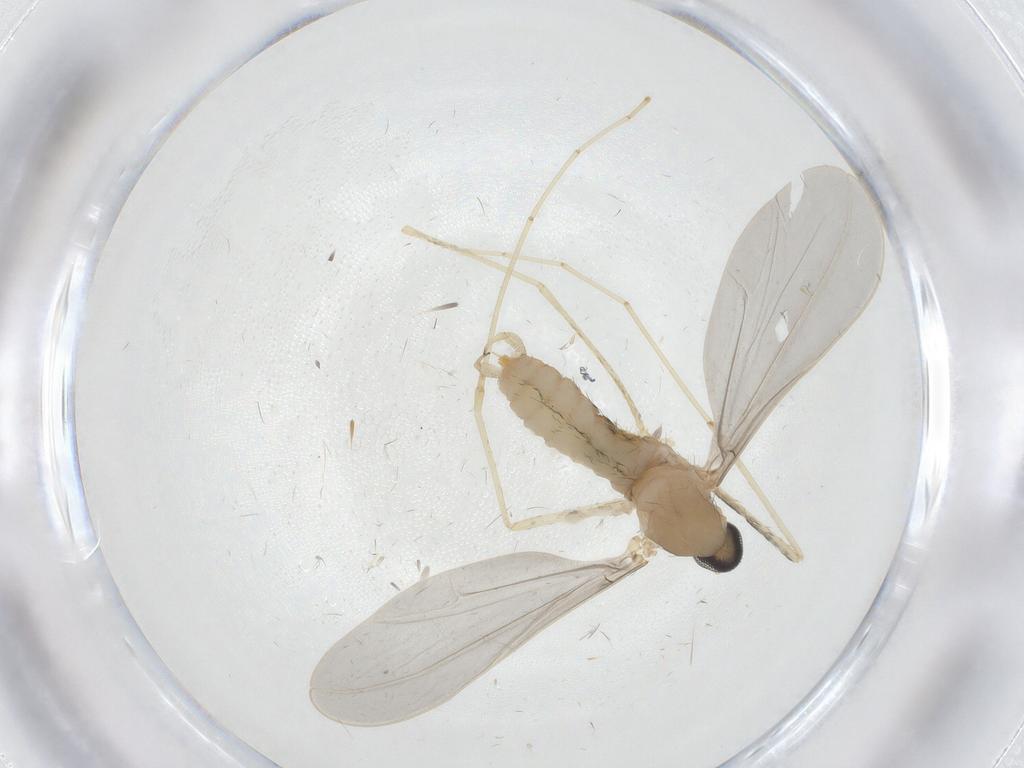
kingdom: Animalia
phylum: Arthropoda
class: Insecta
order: Diptera
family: Cecidomyiidae
